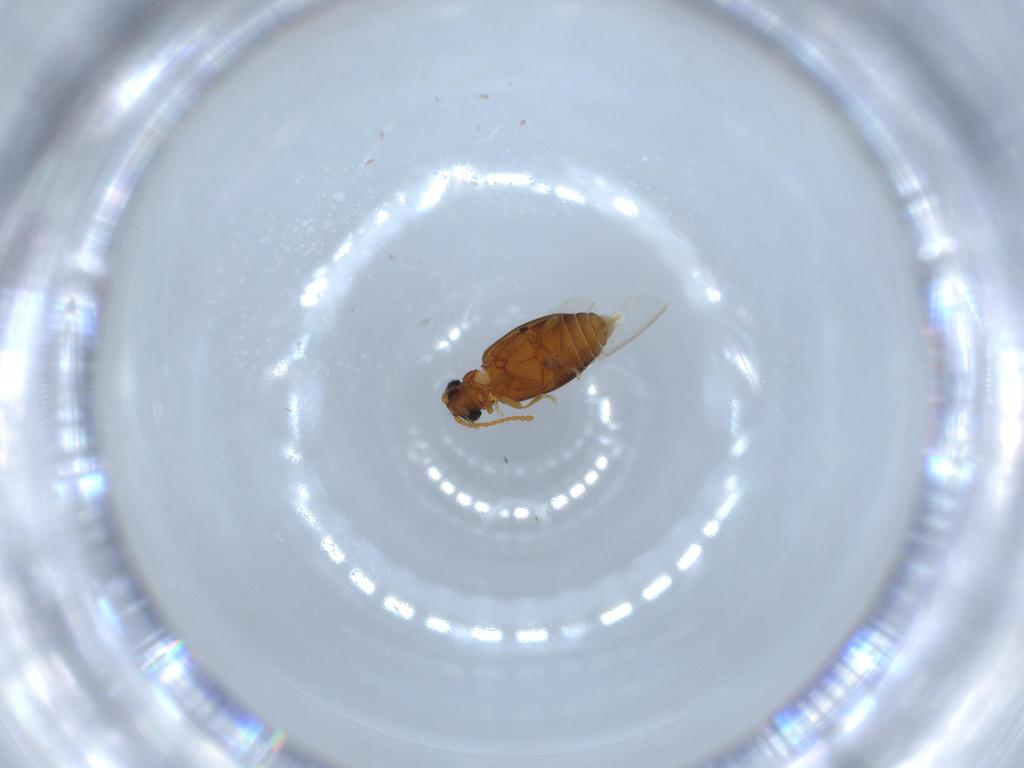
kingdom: Animalia
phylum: Arthropoda
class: Insecta
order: Coleoptera
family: Aderidae
